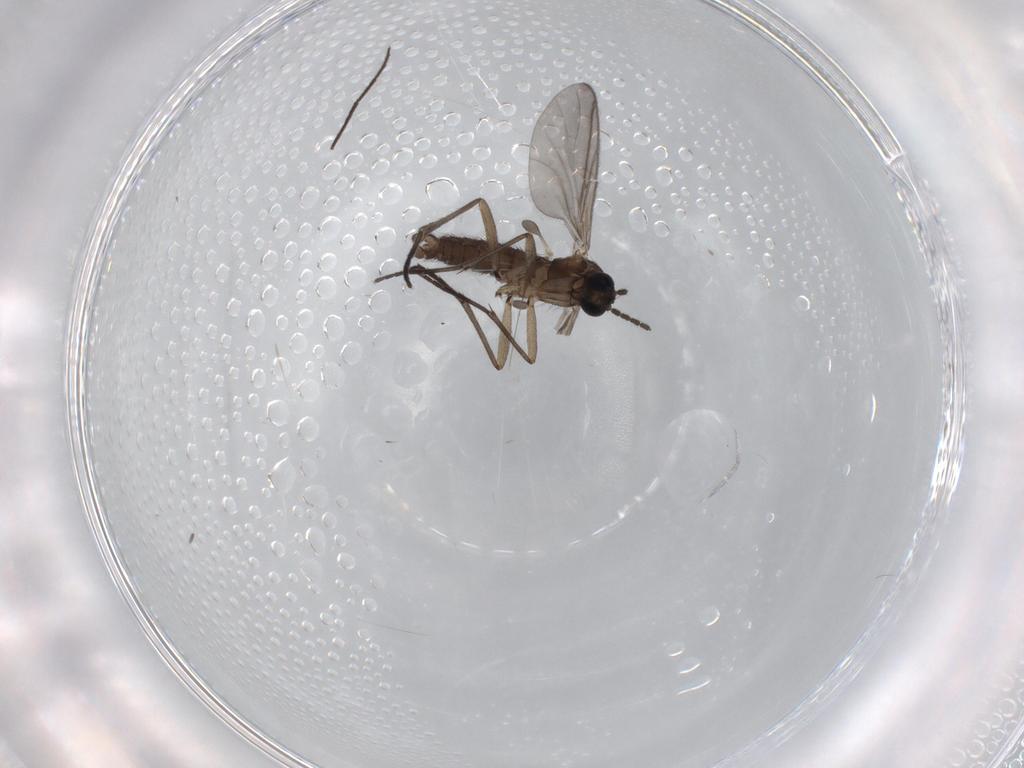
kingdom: Animalia
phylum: Arthropoda
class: Insecta
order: Diptera
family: Sciaridae
